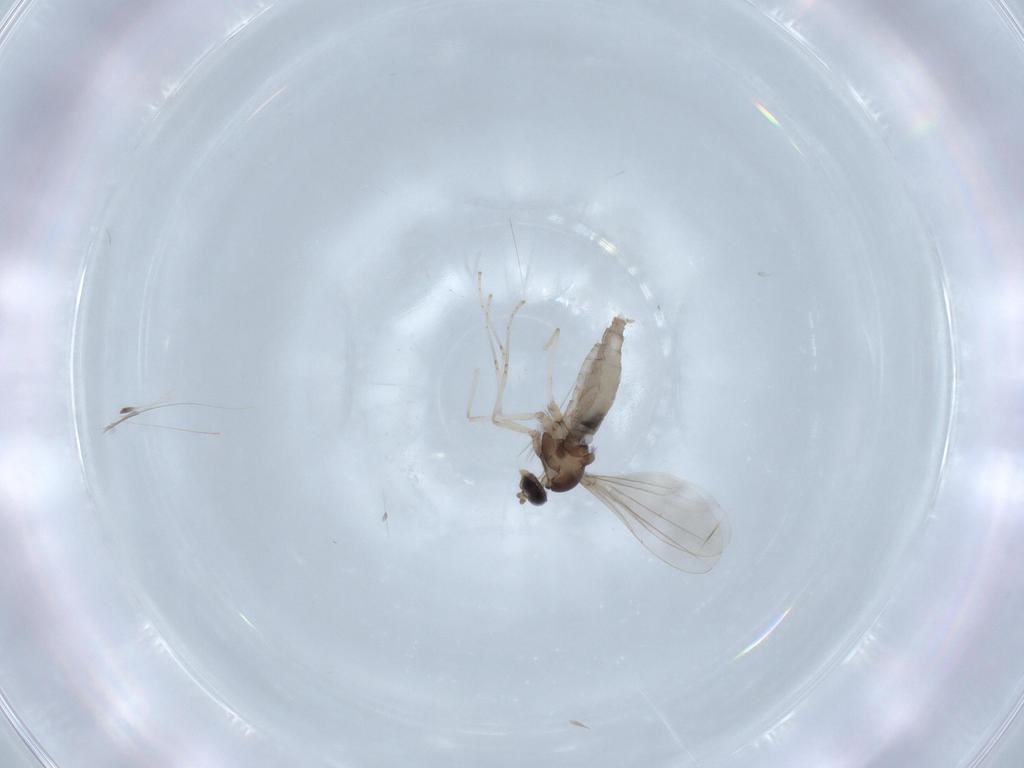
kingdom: Animalia
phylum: Arthropoda
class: Insecta
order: Diptera
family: Cecidomyiidae
